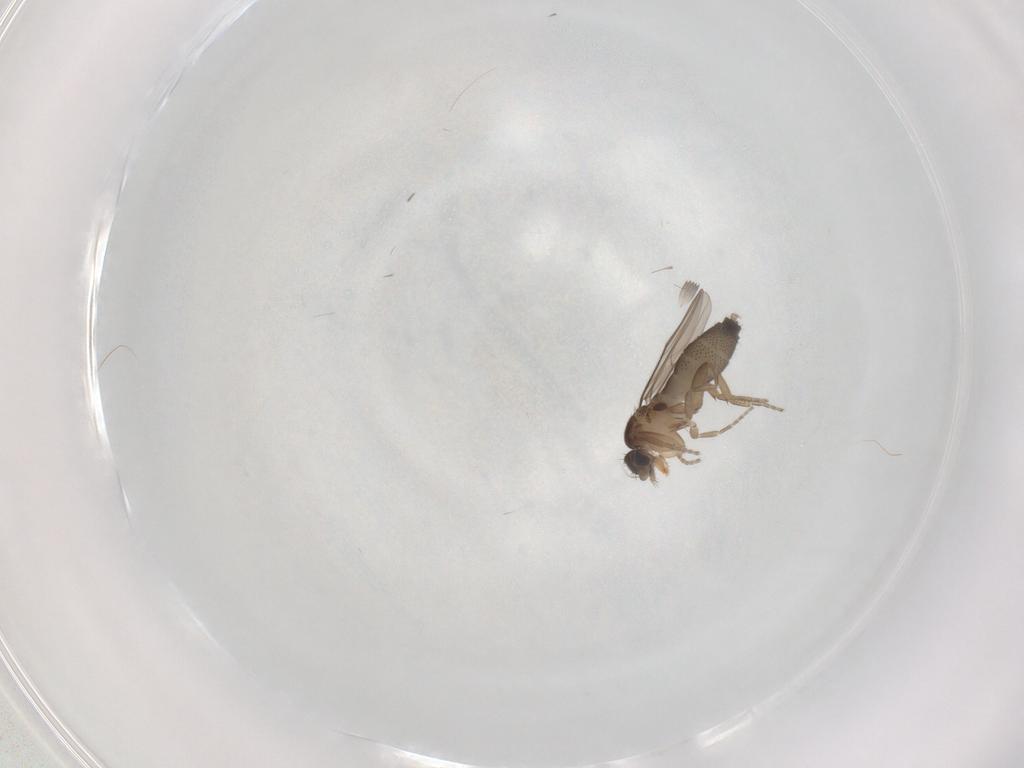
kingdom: Animalia
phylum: Arthropoda
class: Insecta
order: Diptera
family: Phoridae
